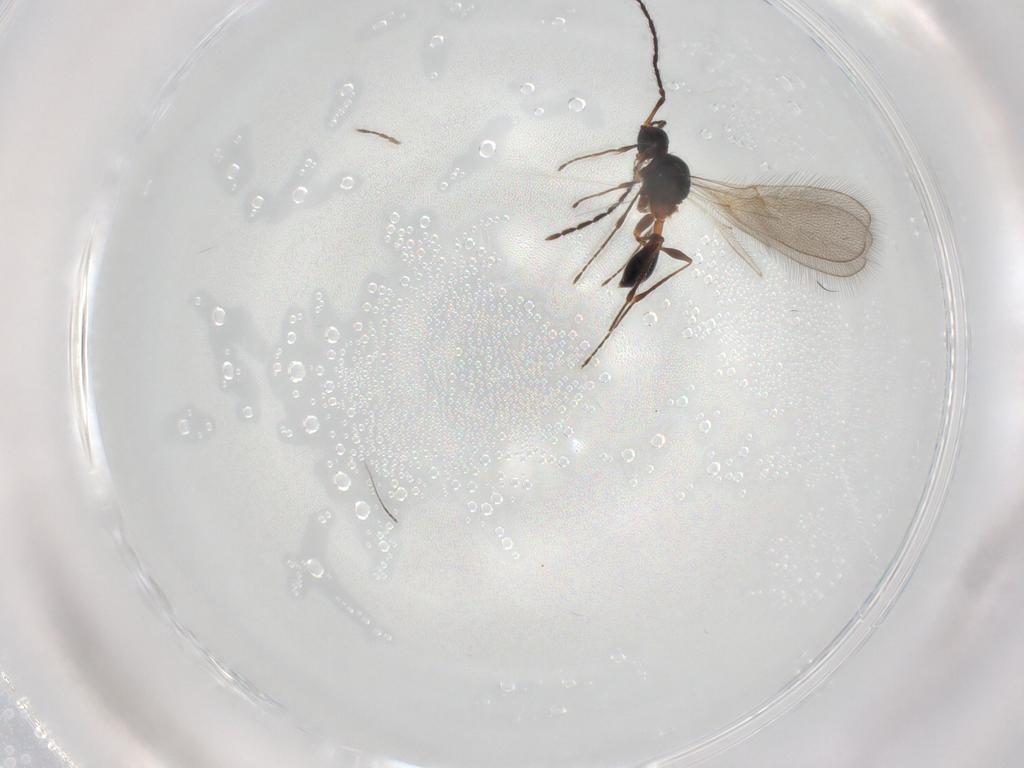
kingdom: Animalia
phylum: Arthropoda
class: Insecta
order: Hymenoptera
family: Diapriidae
